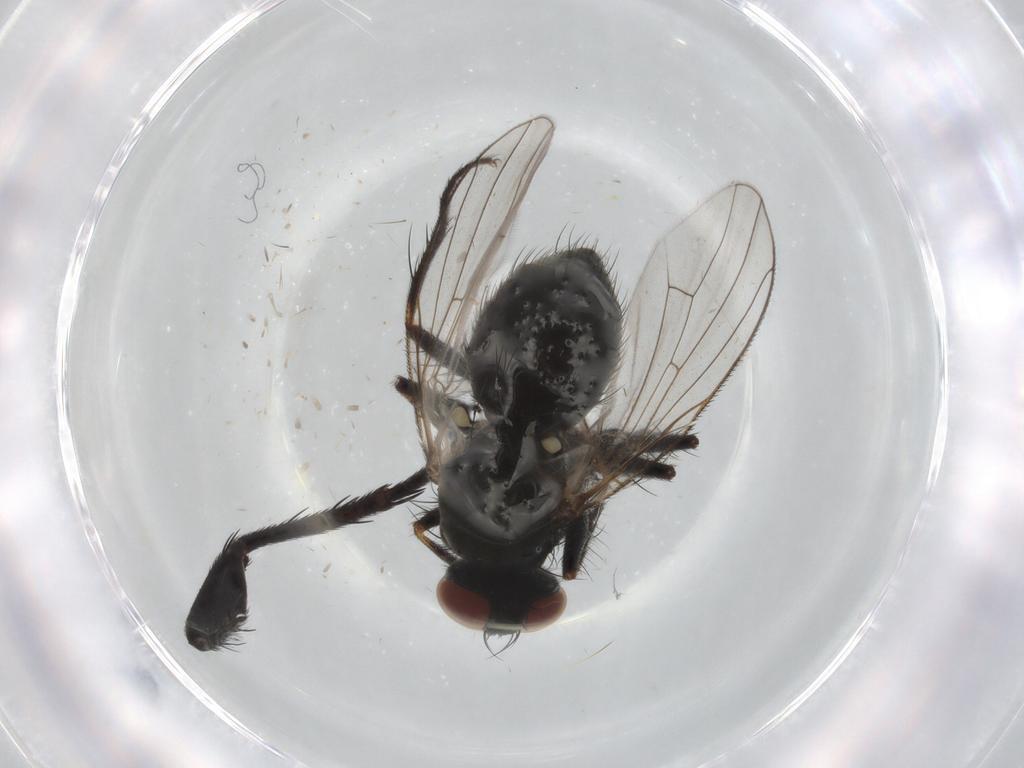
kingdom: Animalia
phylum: Arthropoda
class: Insecta
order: Diptera
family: Muscidae
